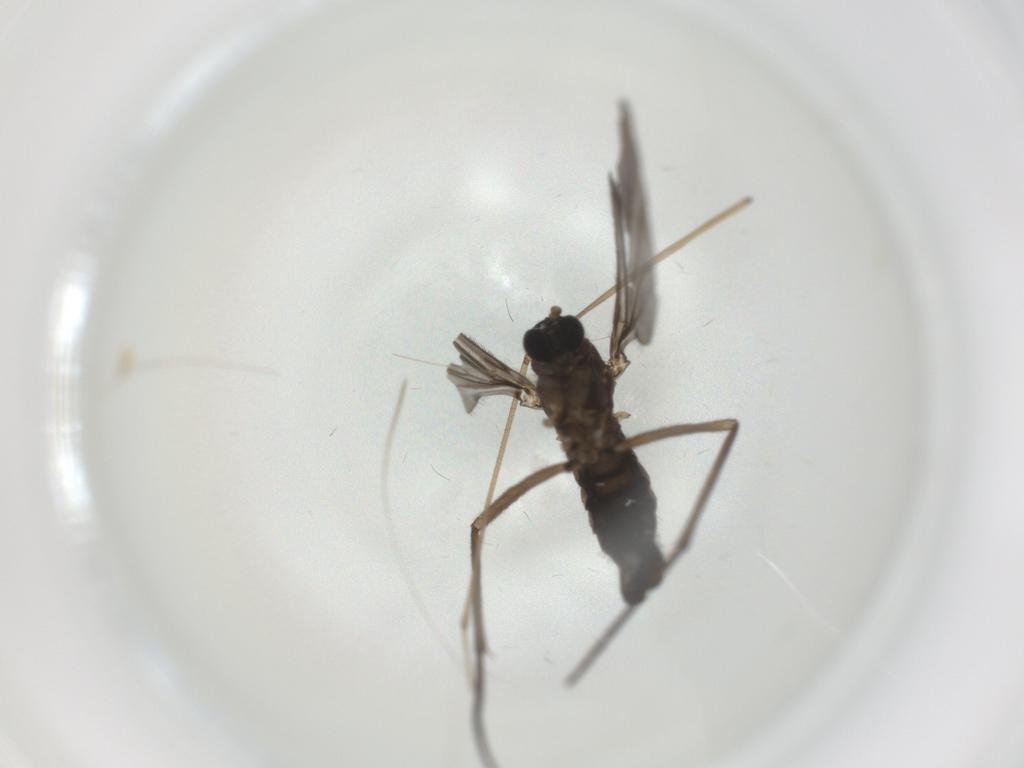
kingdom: Animalia
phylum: Arthropoda
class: Insecta
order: Diptera
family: Sciaridae
